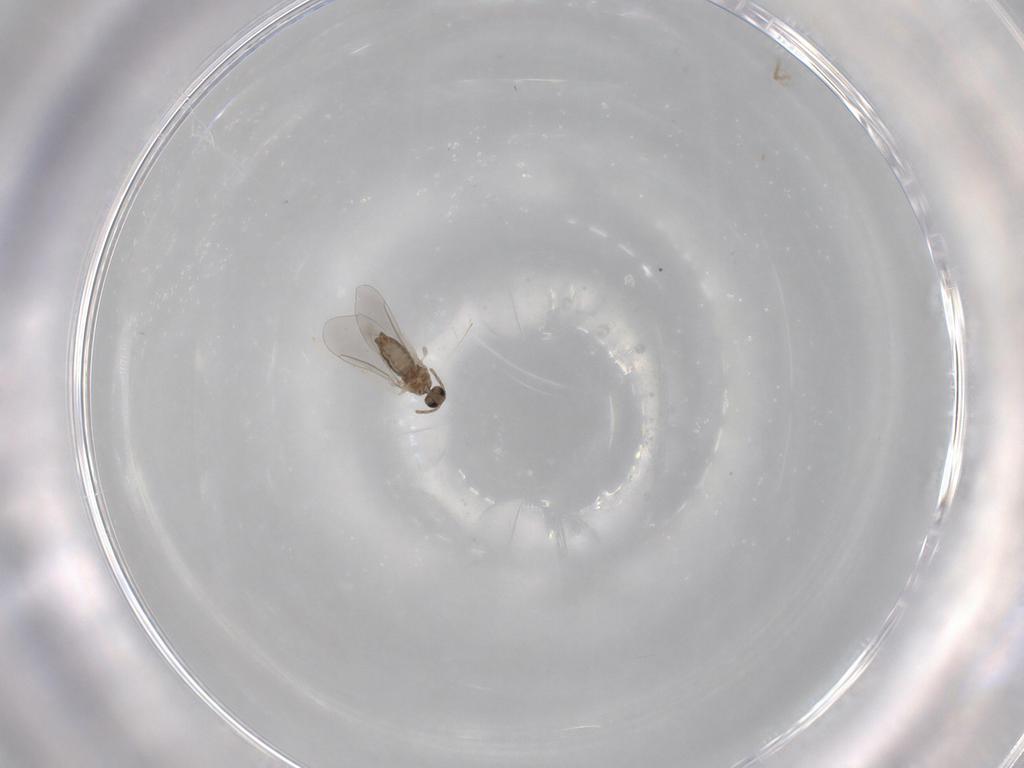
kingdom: Animalia
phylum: Arthropoda
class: Insecta
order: Diptera
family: Cecidomyiidae
